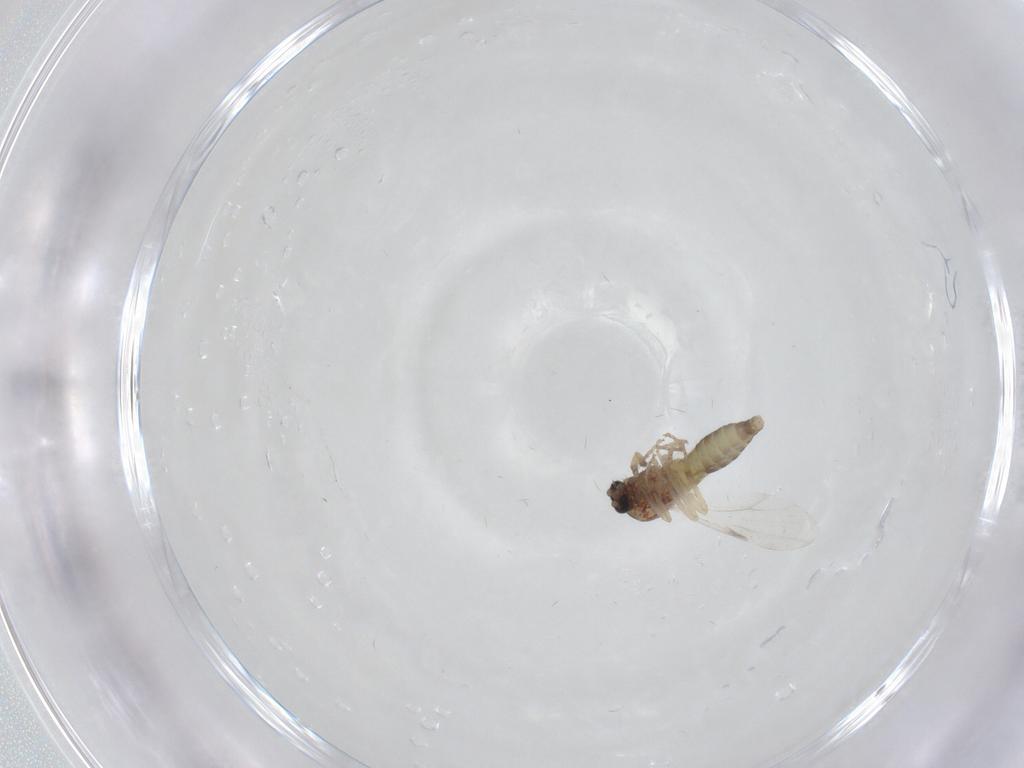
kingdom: Animalia
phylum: Arthropoda
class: Insecta
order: Diptera
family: Ceratopogonidae
